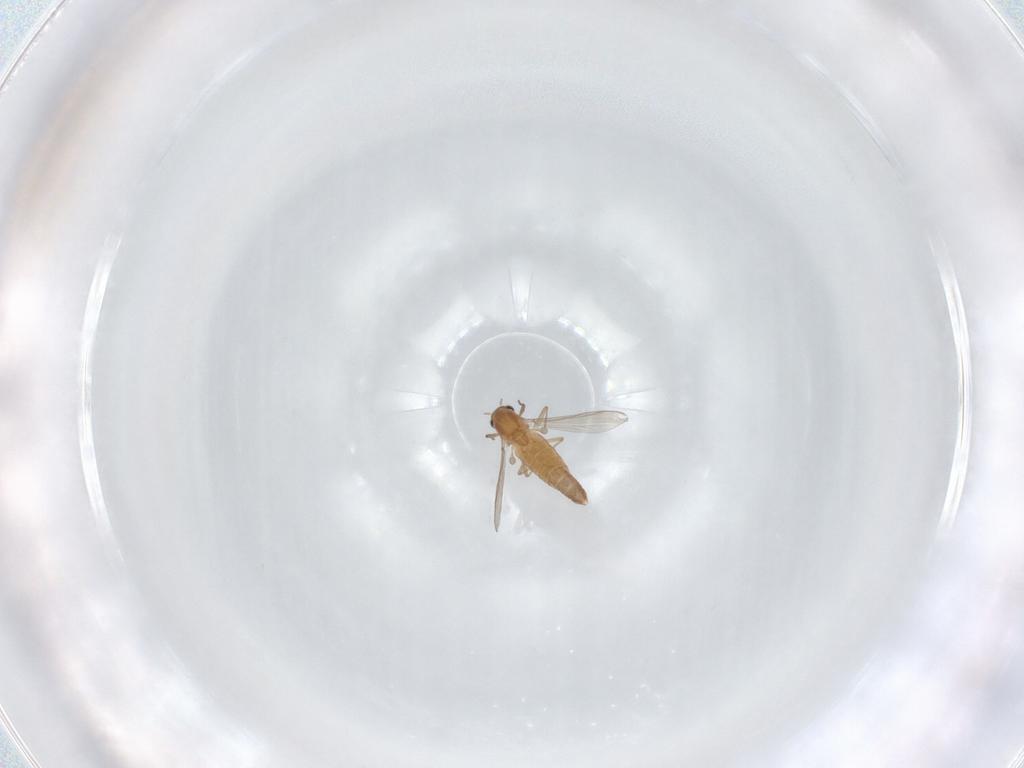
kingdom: Animalia
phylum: Arthropoda
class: Insecta
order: Diptera
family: Chironomidae
